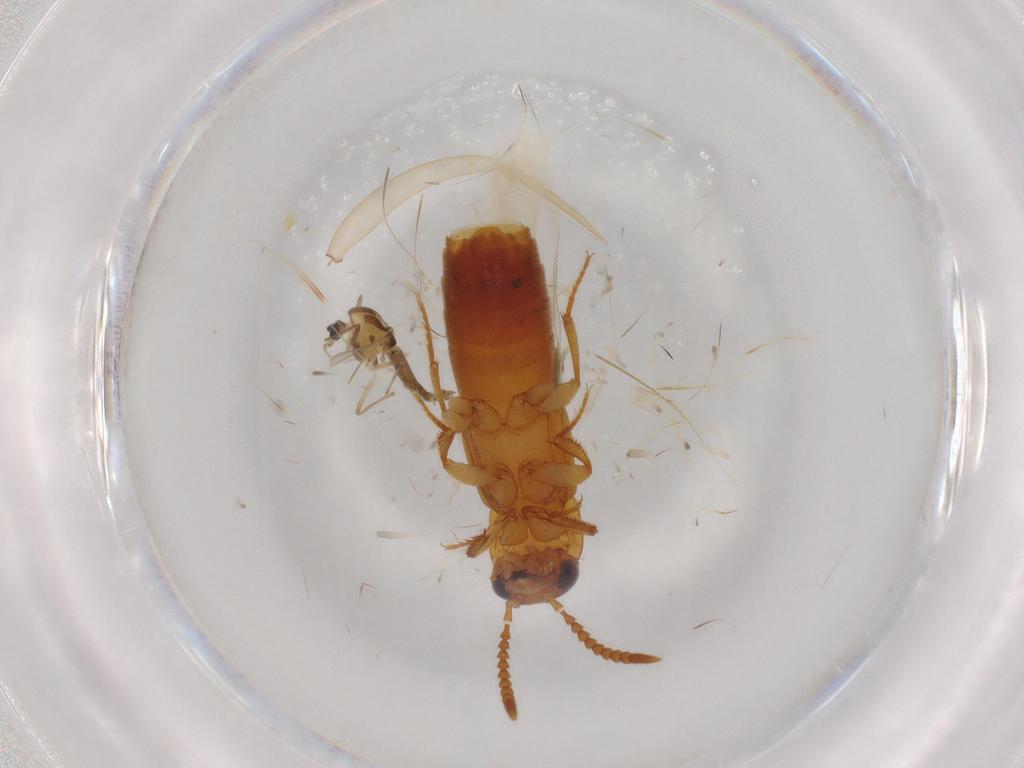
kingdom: Animalia
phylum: Arthropoda
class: Insecta
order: Diptera
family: Chironomidae
